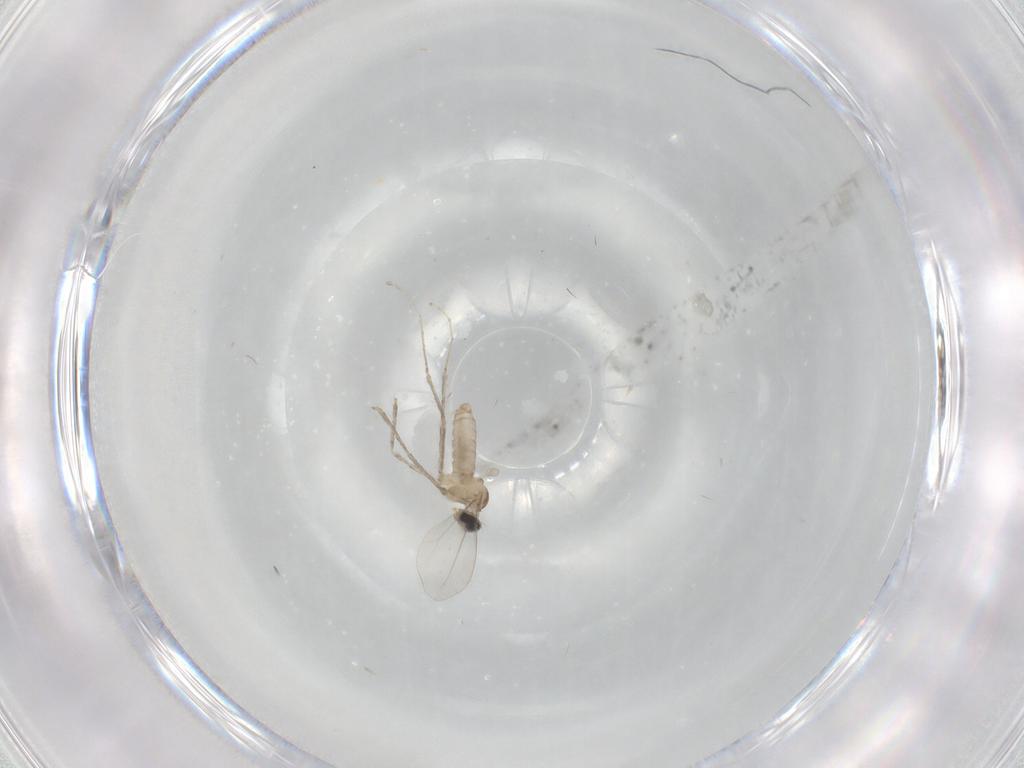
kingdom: Animalia
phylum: Arthropoda
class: Insecta
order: Diptera
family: Cecidomyiidae
